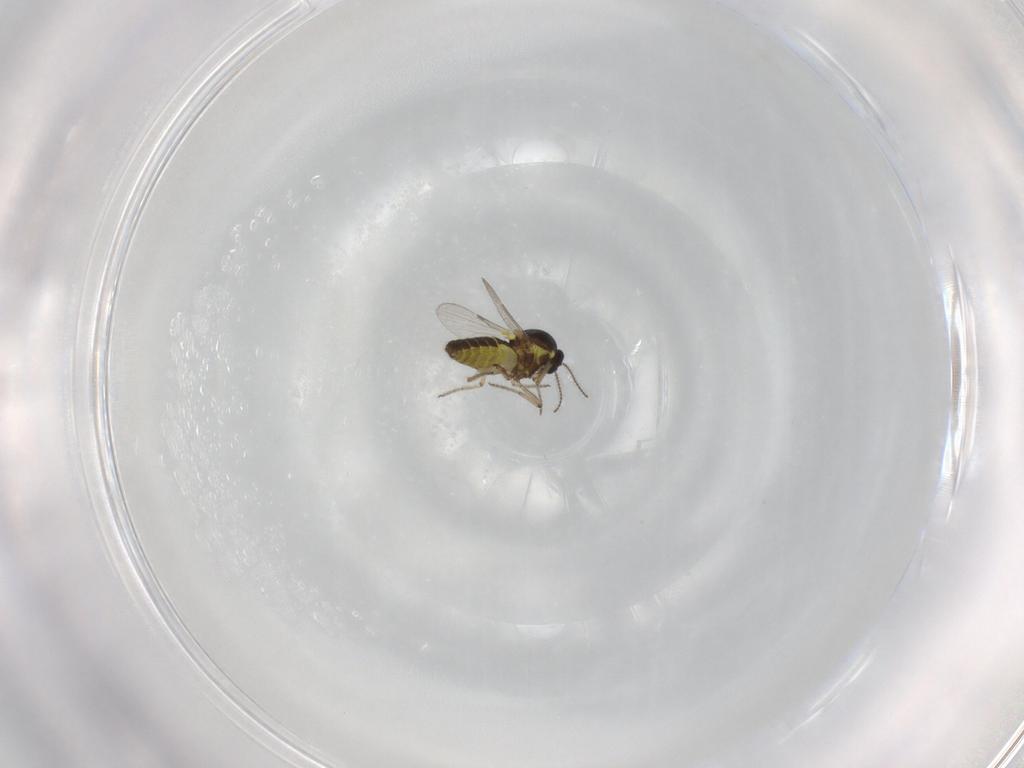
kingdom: Animalia
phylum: Arthropoda
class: Insecta
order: Diptera
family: Ceratopogonidae
